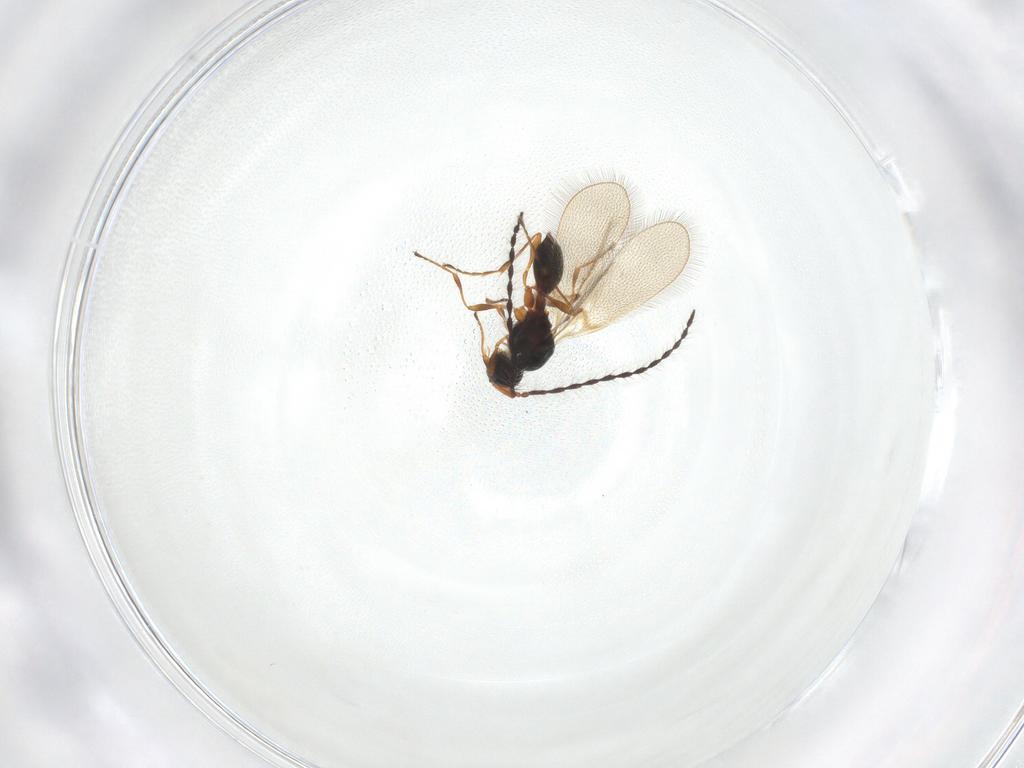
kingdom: Animalia
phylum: Arthropoda
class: Insecta
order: Hymenoptera
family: Diapriidae
